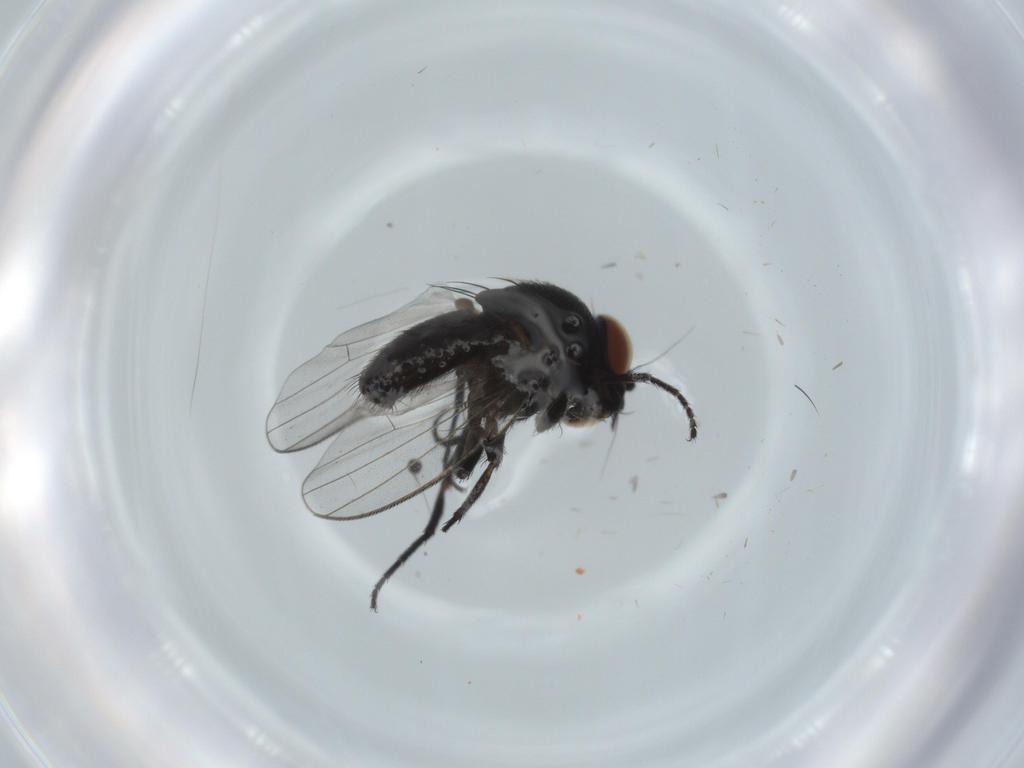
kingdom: Animalia
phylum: Arthropoda
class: Insecta
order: Diptera
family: Milichiidae
